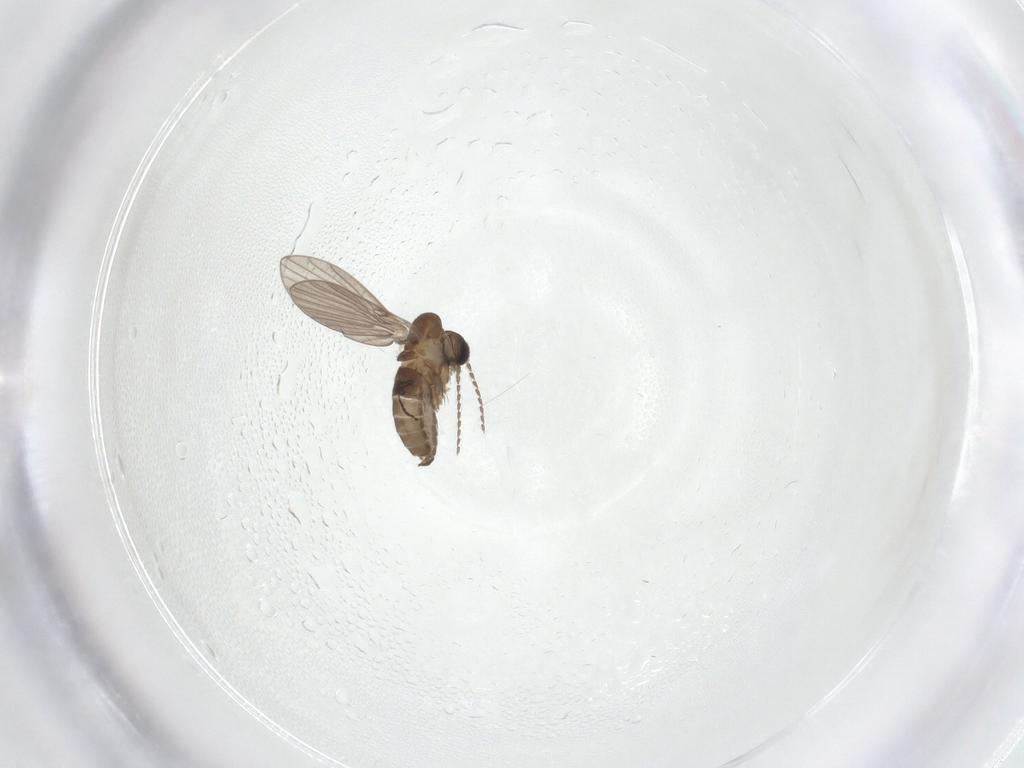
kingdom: Animalia
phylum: Arthropoda
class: Insecta
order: Diptera
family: Psychodidae
